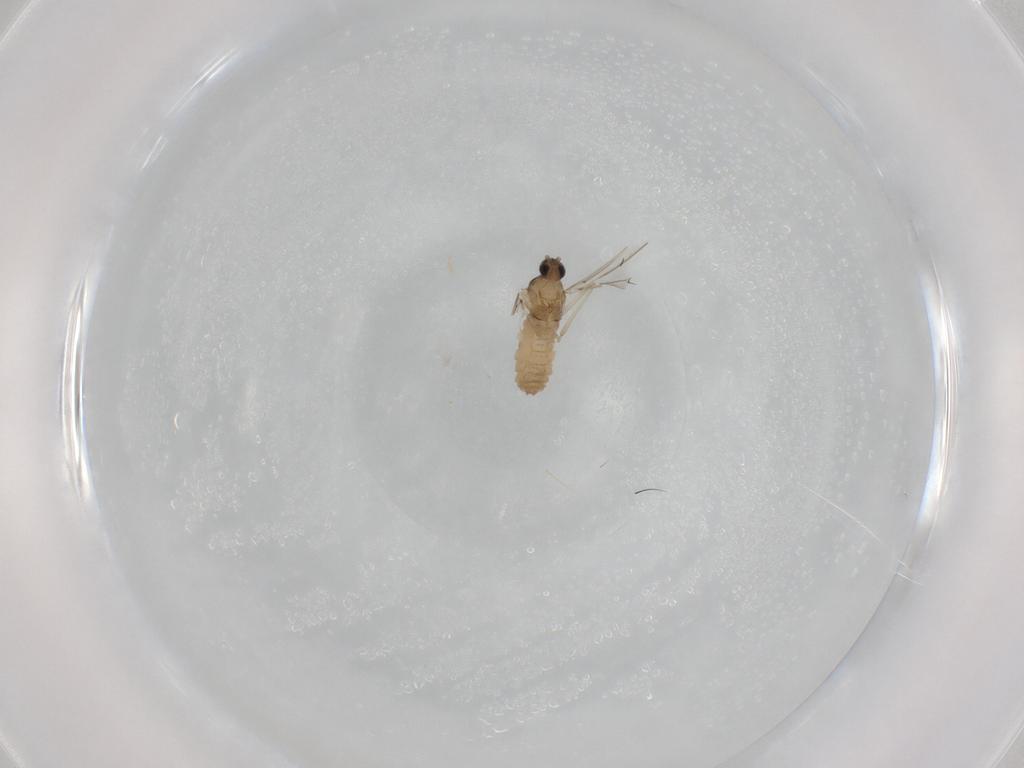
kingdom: Animalia
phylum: Arthropoda
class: Insecta
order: Diptera
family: Cecidomyiidae
